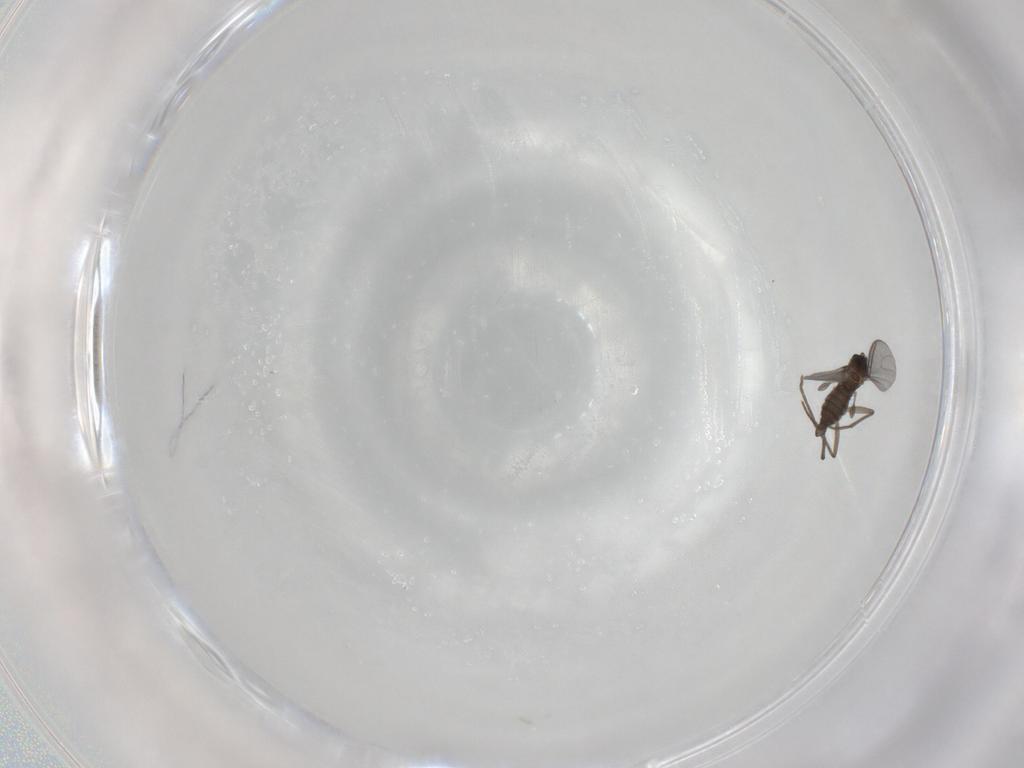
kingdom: Animalia
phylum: Arthropoda
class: Insecta
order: Diptera
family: Sciaridae
